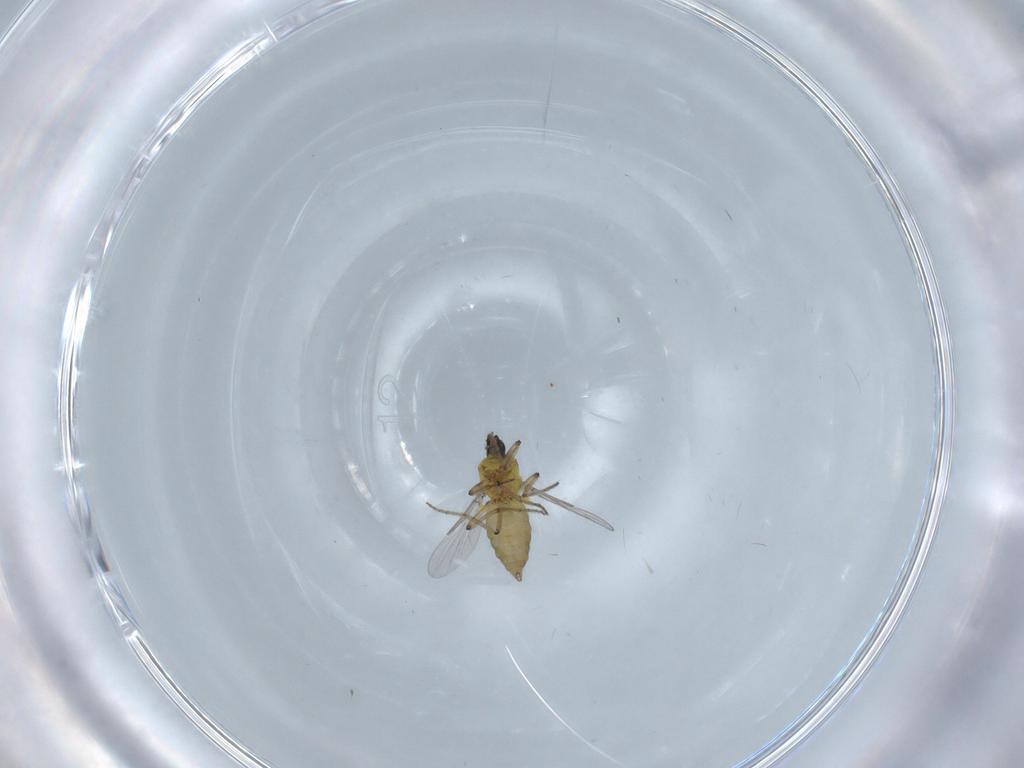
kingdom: Animalia
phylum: Arthropoda
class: Insecta
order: Diptera
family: Ceratopogonidae
